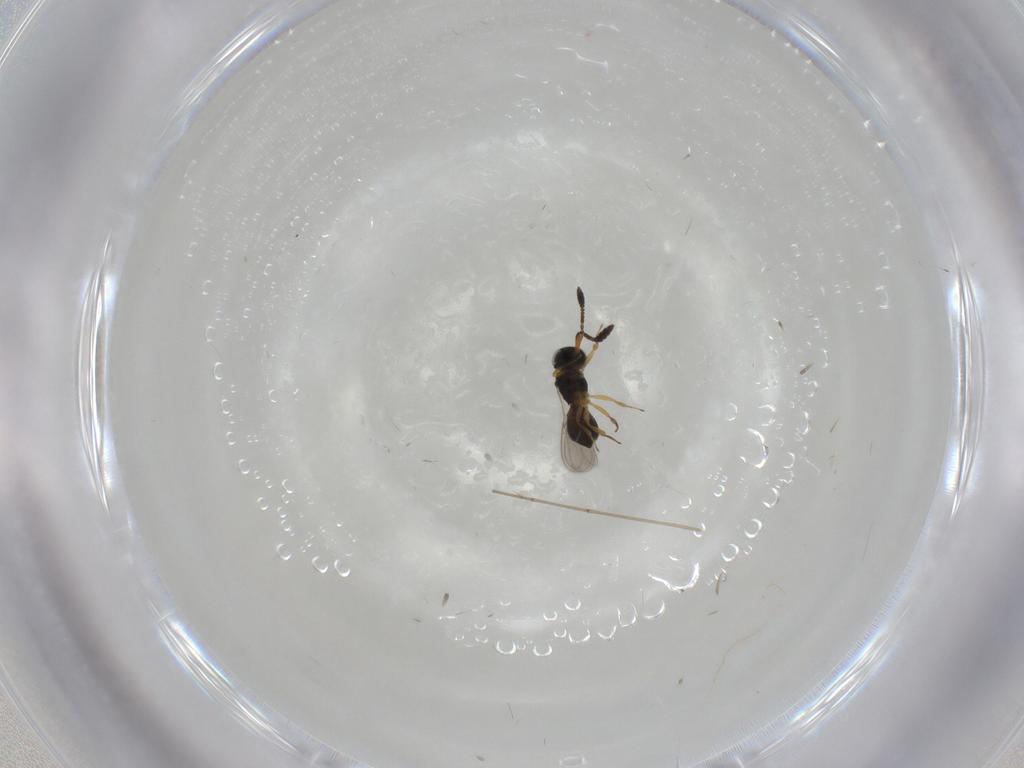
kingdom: Animalia
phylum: Arthropoda
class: Insecta
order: Hymenoptera
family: Scelionidae
